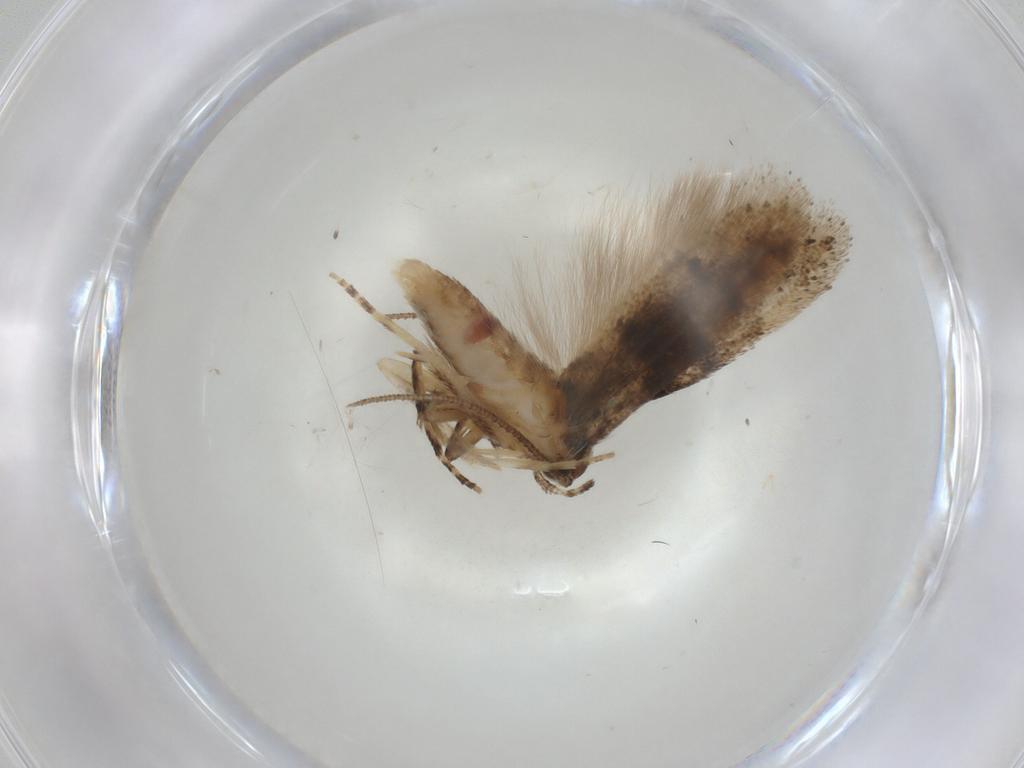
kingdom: Animalia
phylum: Arthropoda
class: Insecta
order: Lepidoptera
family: Gelechiidae
